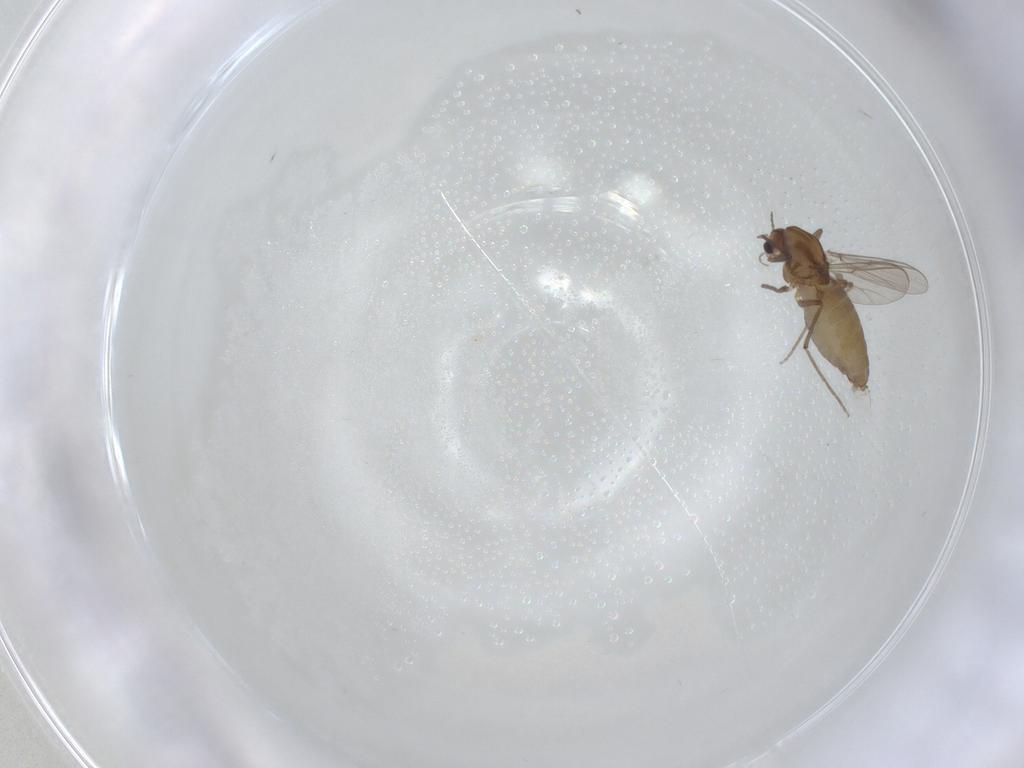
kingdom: Animalia
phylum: Arthropoda
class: Insecta
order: Diptera
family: Chironomidae
